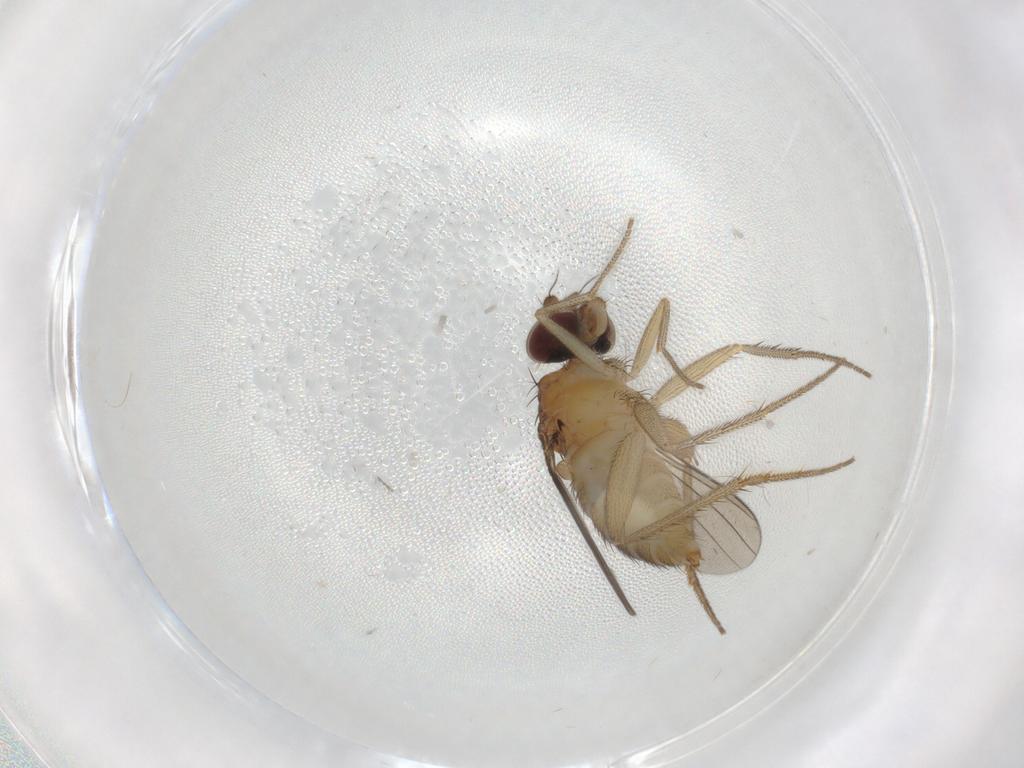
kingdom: Animalia
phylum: Arthropoda
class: Insecta
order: Diptera
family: Dolichopodidae
